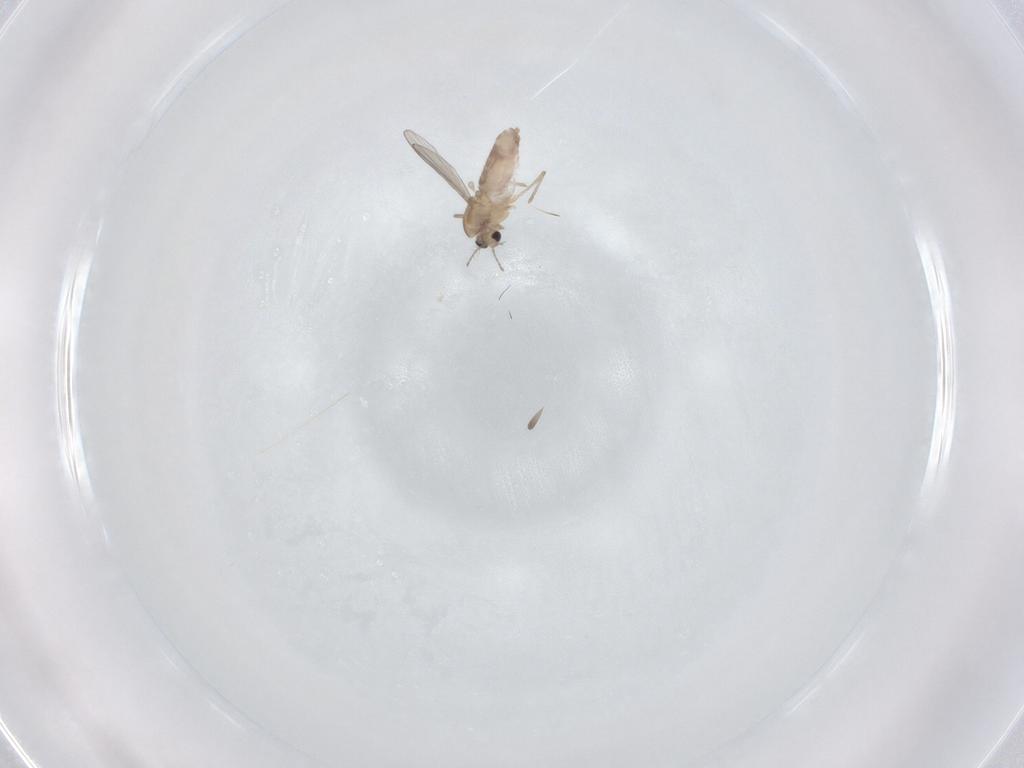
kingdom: Animalia
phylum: Arthropoda
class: Insecta
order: Diptera
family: Chironomidae
